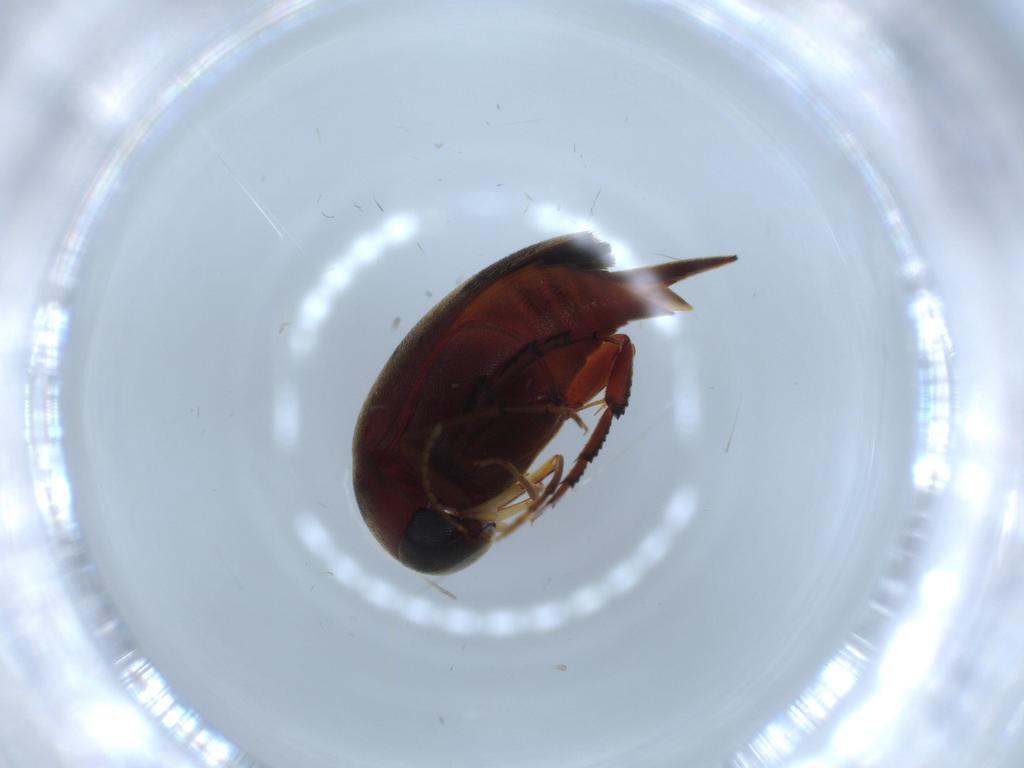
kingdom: Animalia
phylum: Arthropoda
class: Insecta
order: Coleoptera
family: Mordellidae
